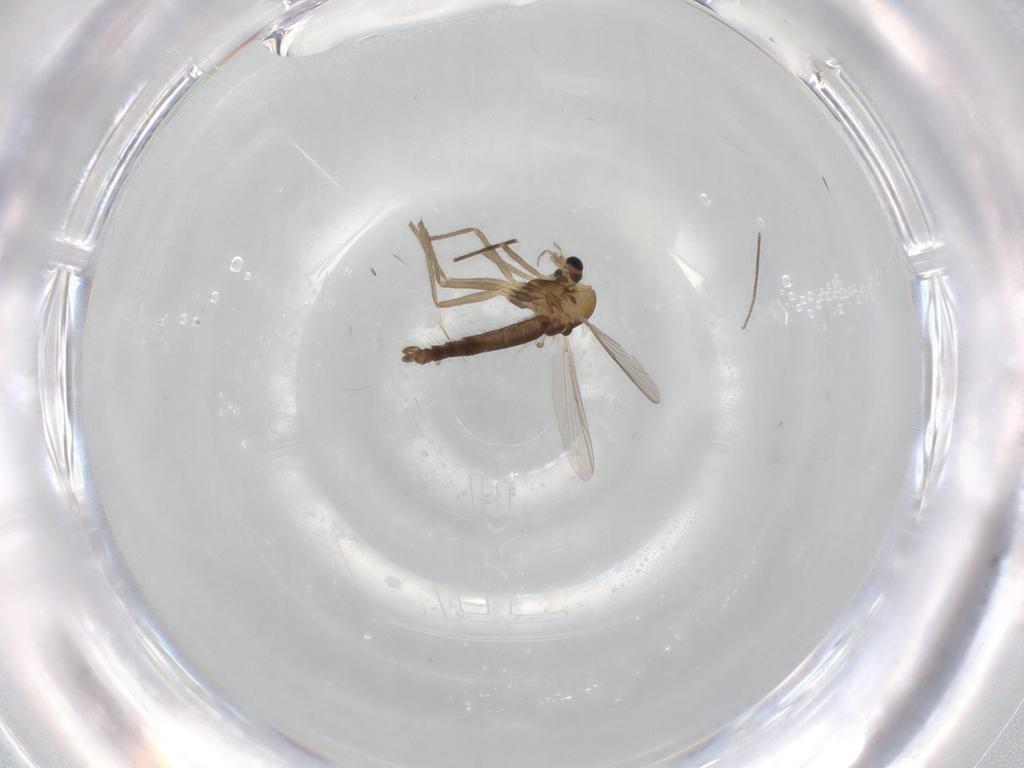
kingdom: Animalia
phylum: Arthropoda
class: Insecta
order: Diptera
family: Chironomidae
